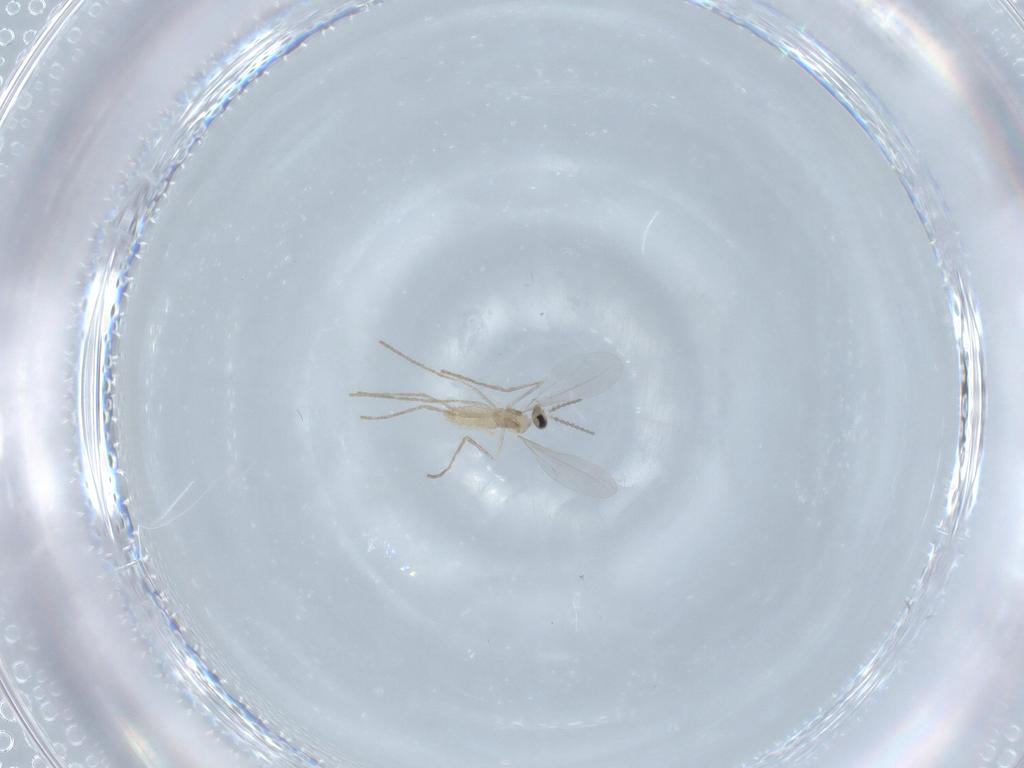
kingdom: Animalia
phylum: Arthropoda
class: Insecta
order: Diptera
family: Cecidomyiidae
